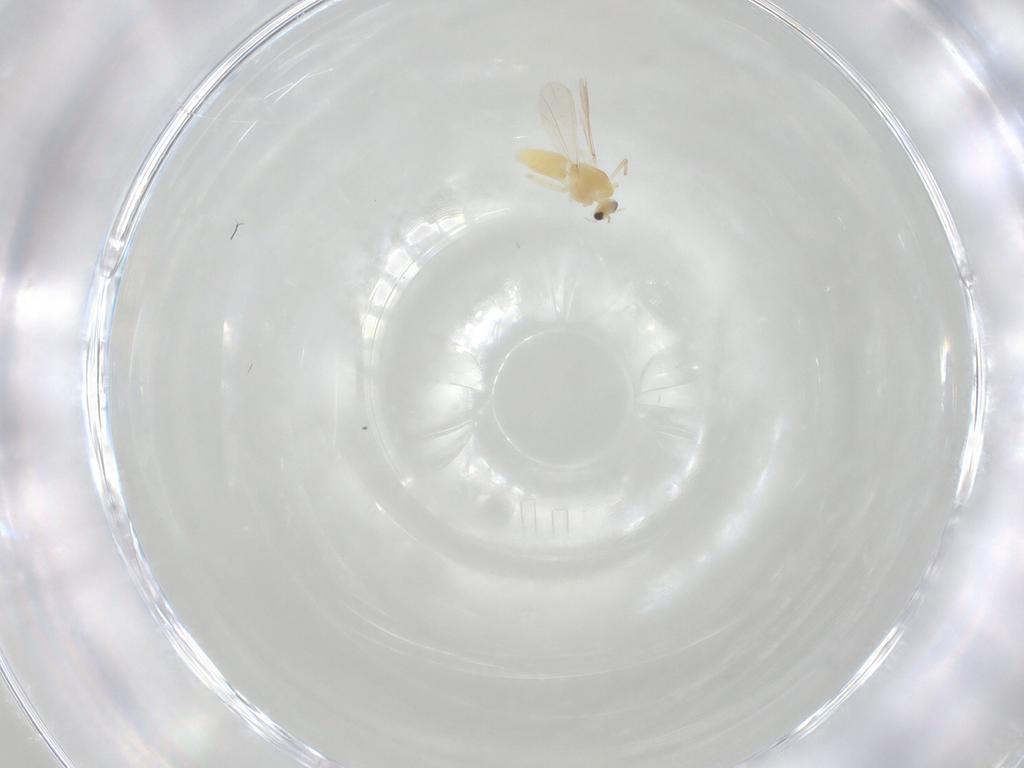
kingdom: Animalia
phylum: Arthropoda
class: Insecta
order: Diptera
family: Chironomidae
